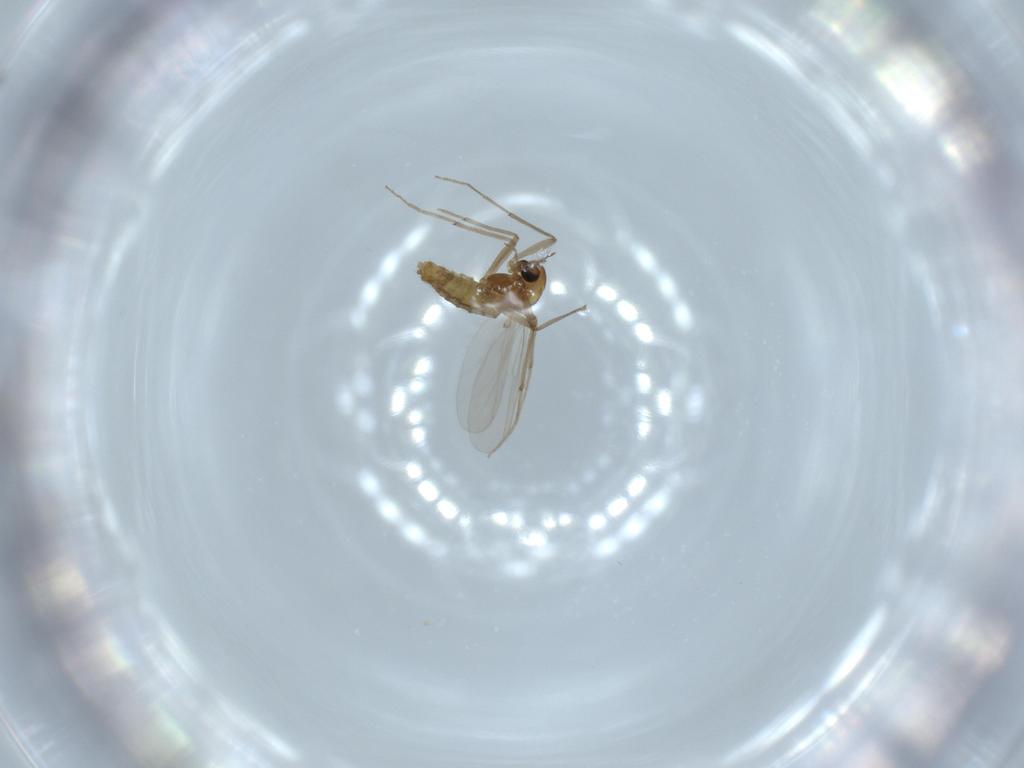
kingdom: Animalia
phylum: Arthropoda
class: Insecta
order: Diptera
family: Chironomidae
